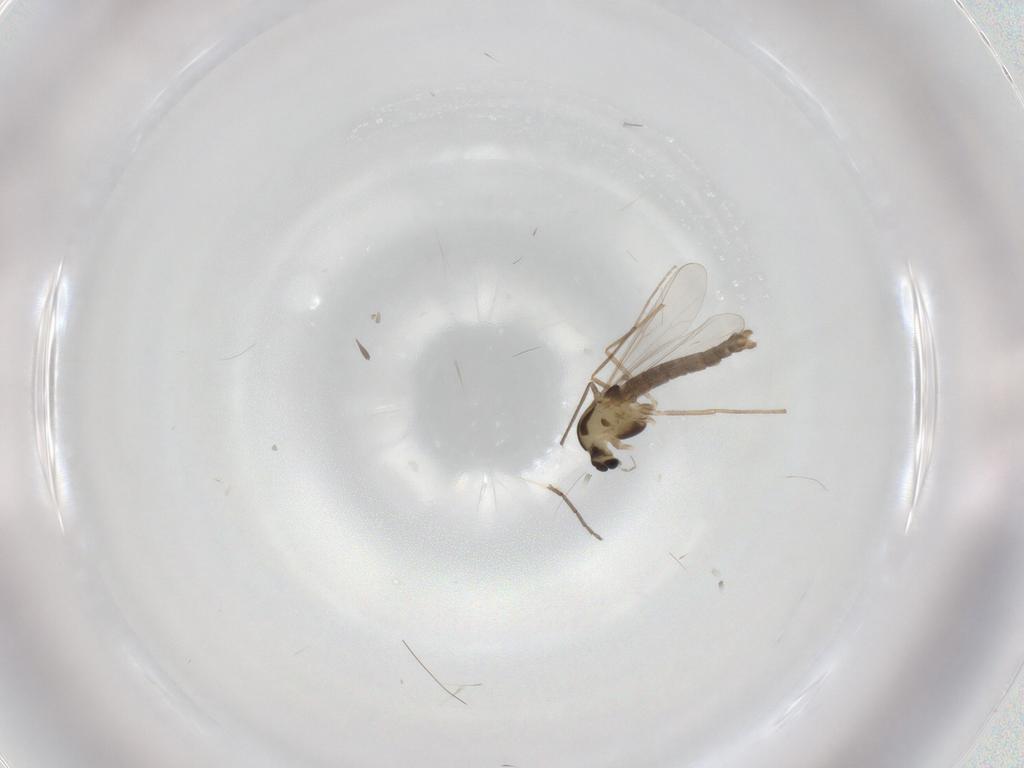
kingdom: Animalia
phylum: Arthropoda
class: Insecta
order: Diptera
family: Chironomidae
